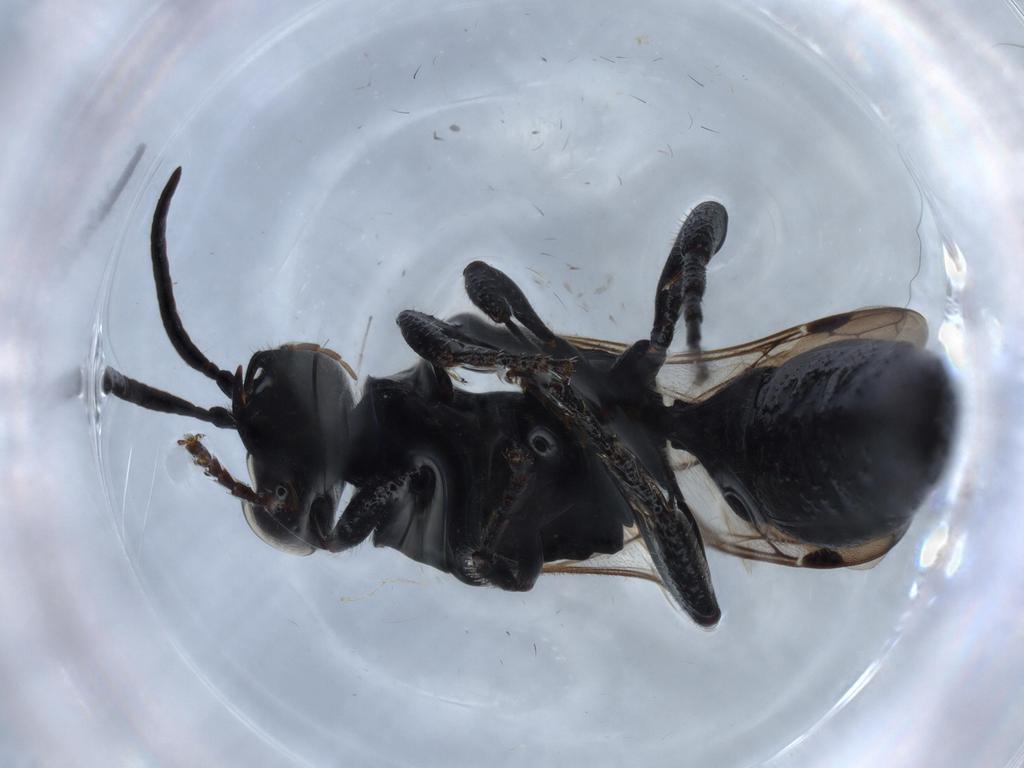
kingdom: Animalia
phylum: Arthropoda
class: Insecta
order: Hymenoptera
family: Tiphiidae
